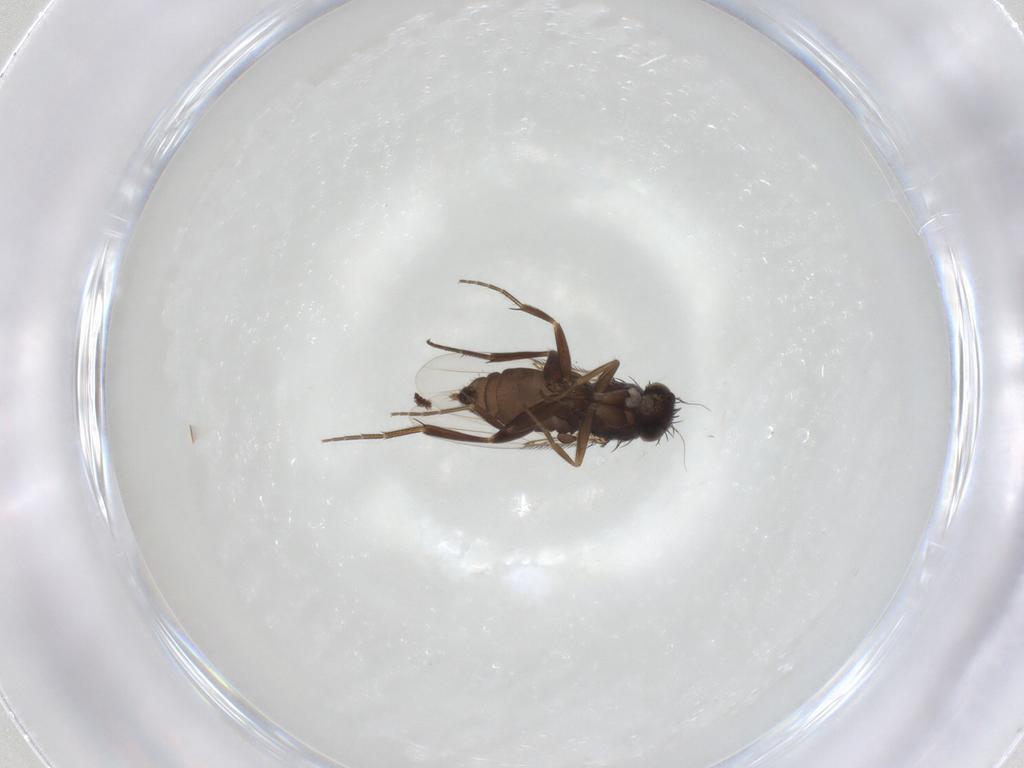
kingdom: Animalia
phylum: Arthropoda
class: Insecta
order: Diptera
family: Phoridae
